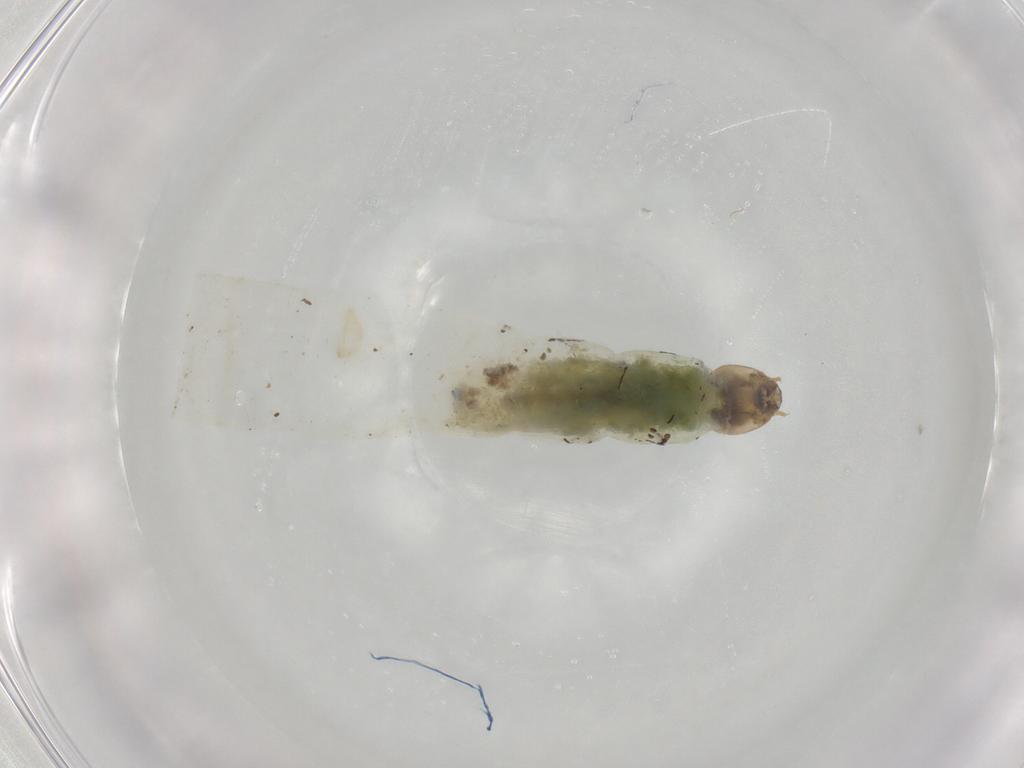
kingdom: Animalia
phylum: Arthropoda
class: Insecta
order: Diptera
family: Chironomidae
